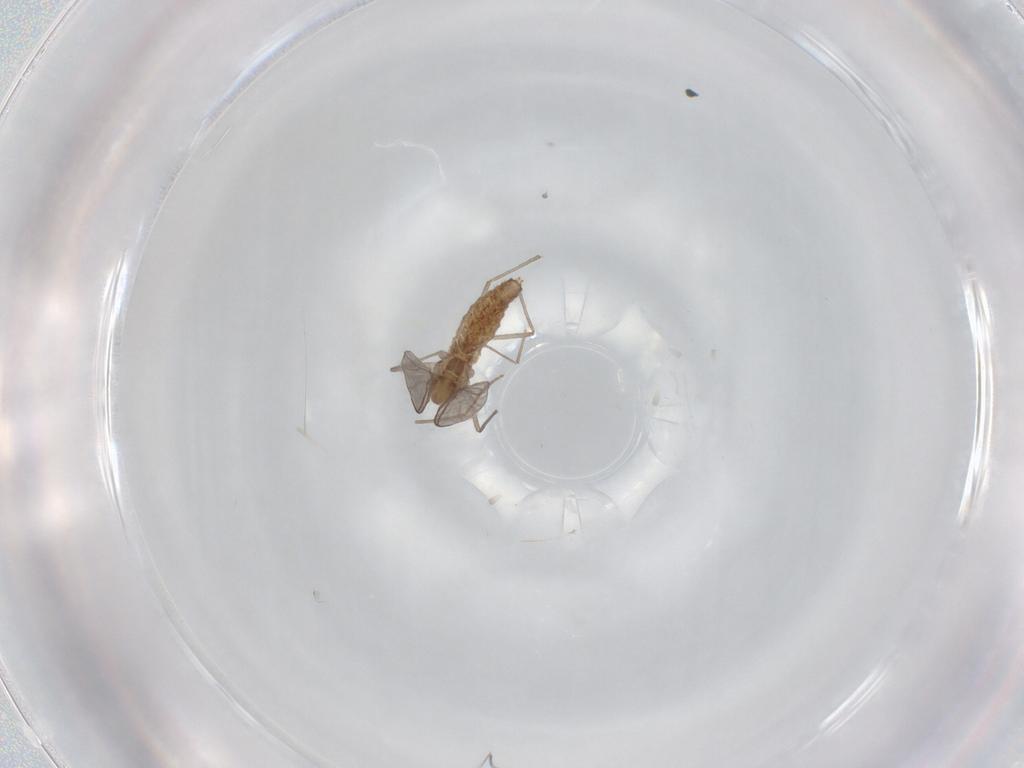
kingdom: Animalia
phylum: Arthropoda
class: Insecta
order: Diptera
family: Chironomidae
